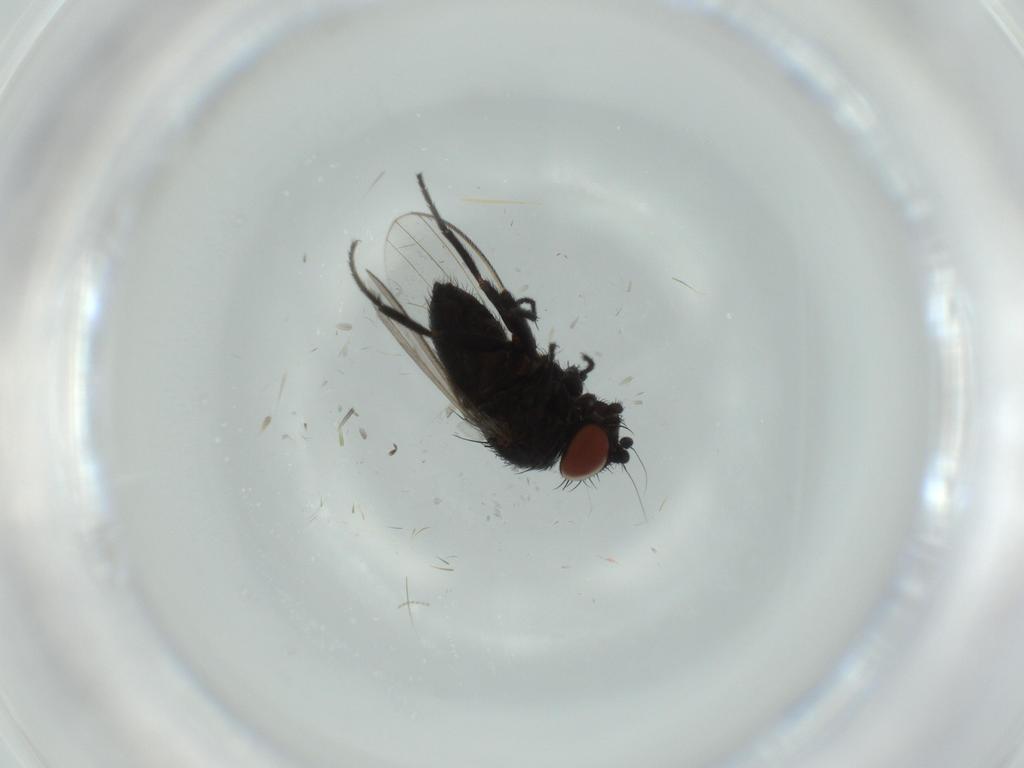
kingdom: Animalia
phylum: Arthropoda
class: Insecta
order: Diptera
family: Milichiidae
